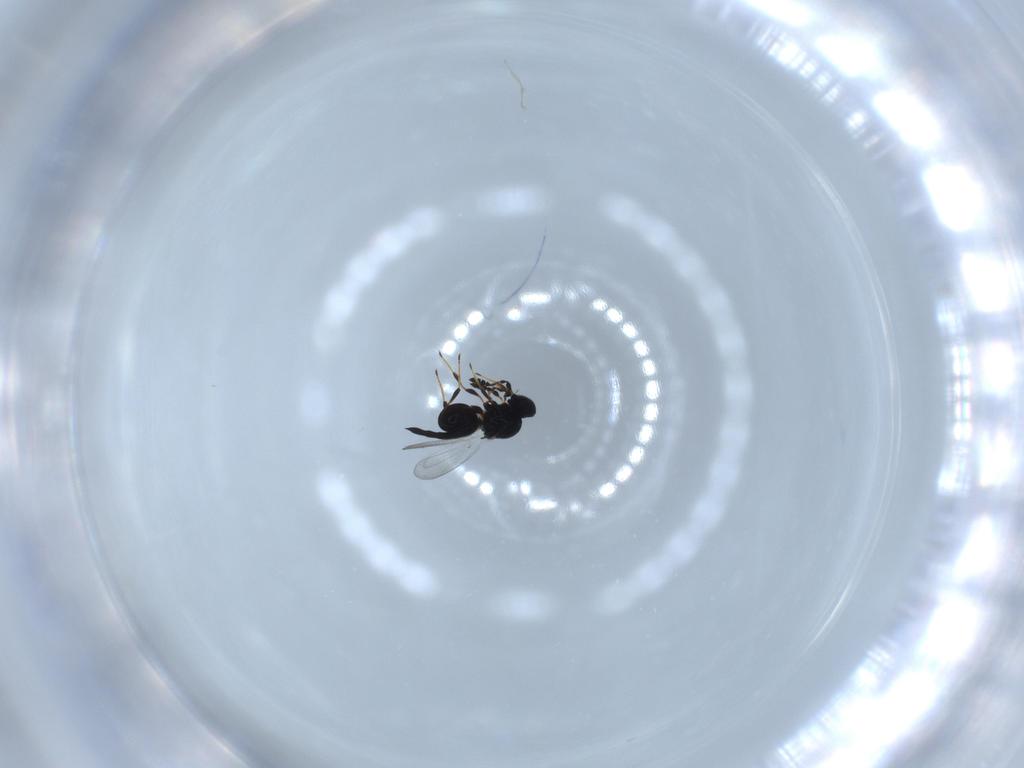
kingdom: Animalia
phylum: Arthropoda
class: Insecta
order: Hymenoptera
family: Platygastridae
